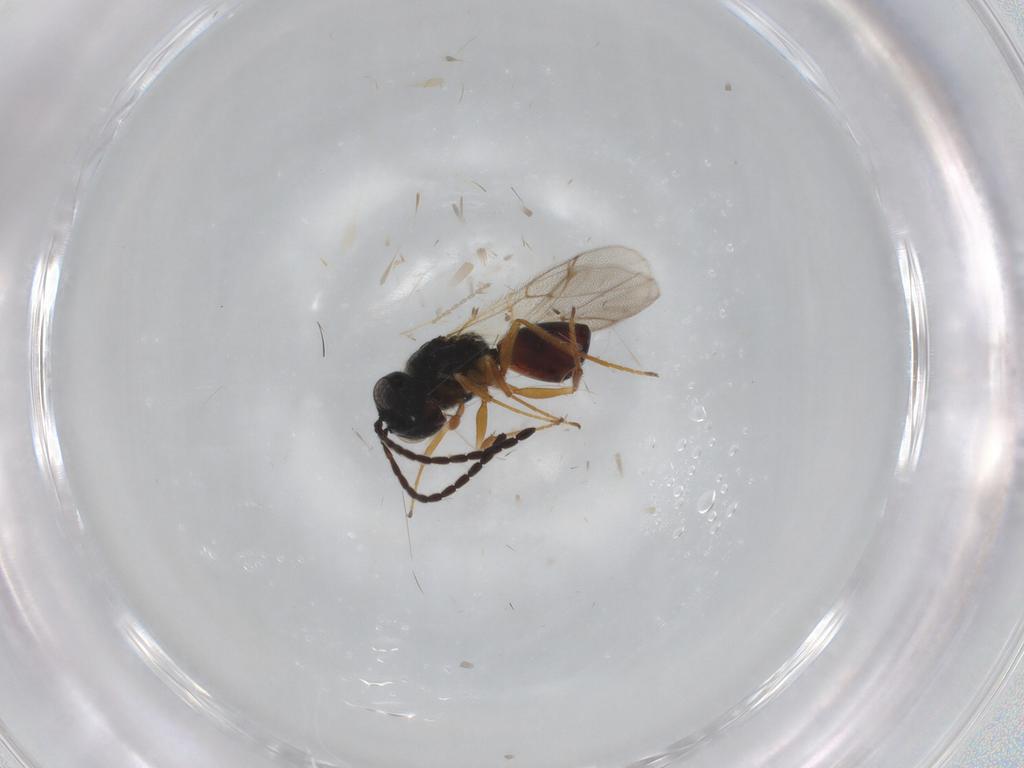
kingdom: Animalia
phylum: Arthropoda
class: Insecta
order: Hymenoptera
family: Figitidae
